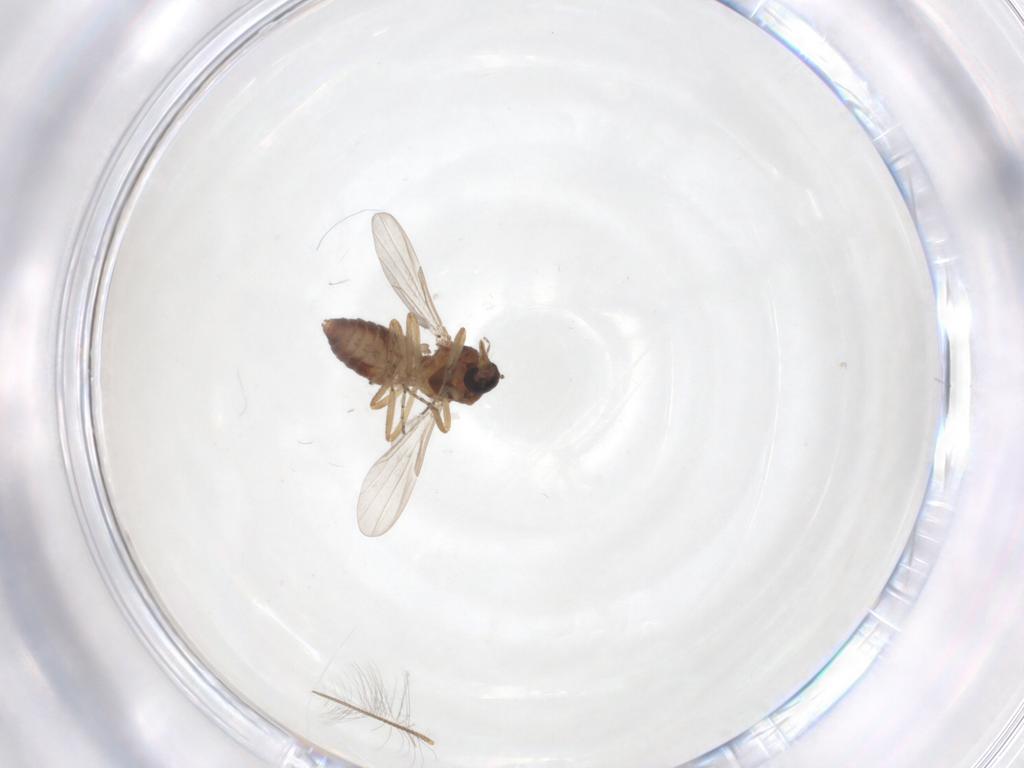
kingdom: Animalia
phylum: Arthropoda
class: Insecta
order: Diptera
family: Ceratopogonidae
